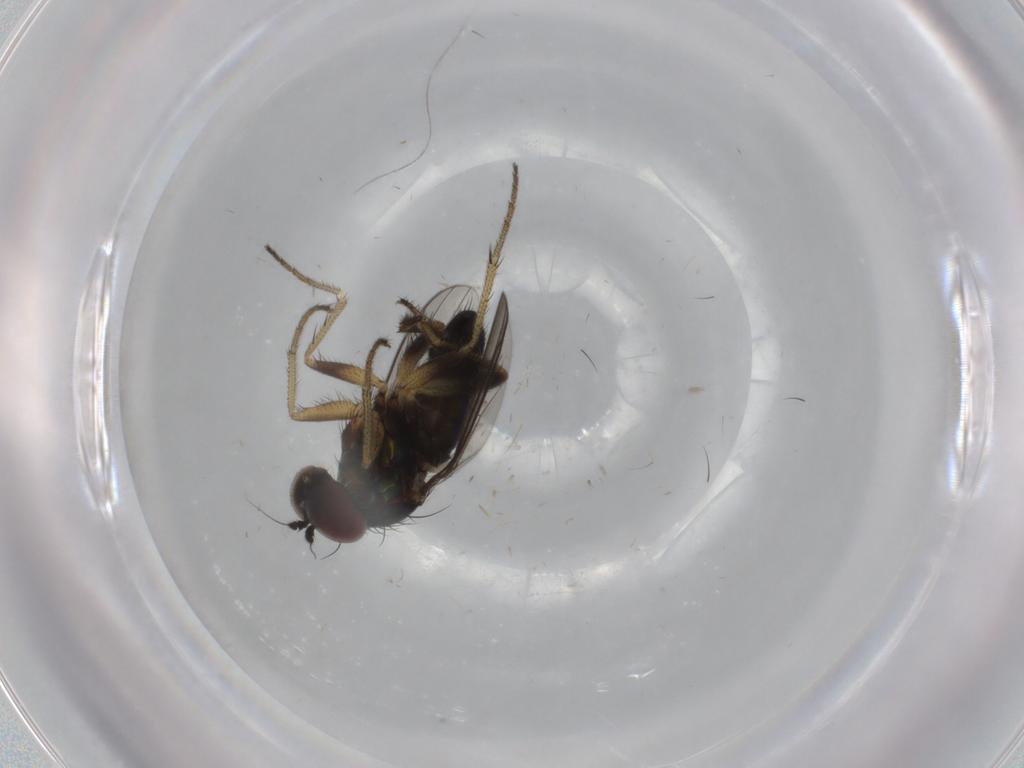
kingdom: Animalia
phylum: Arthropoda
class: Insecta
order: Diptera
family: Dolichopodidae
